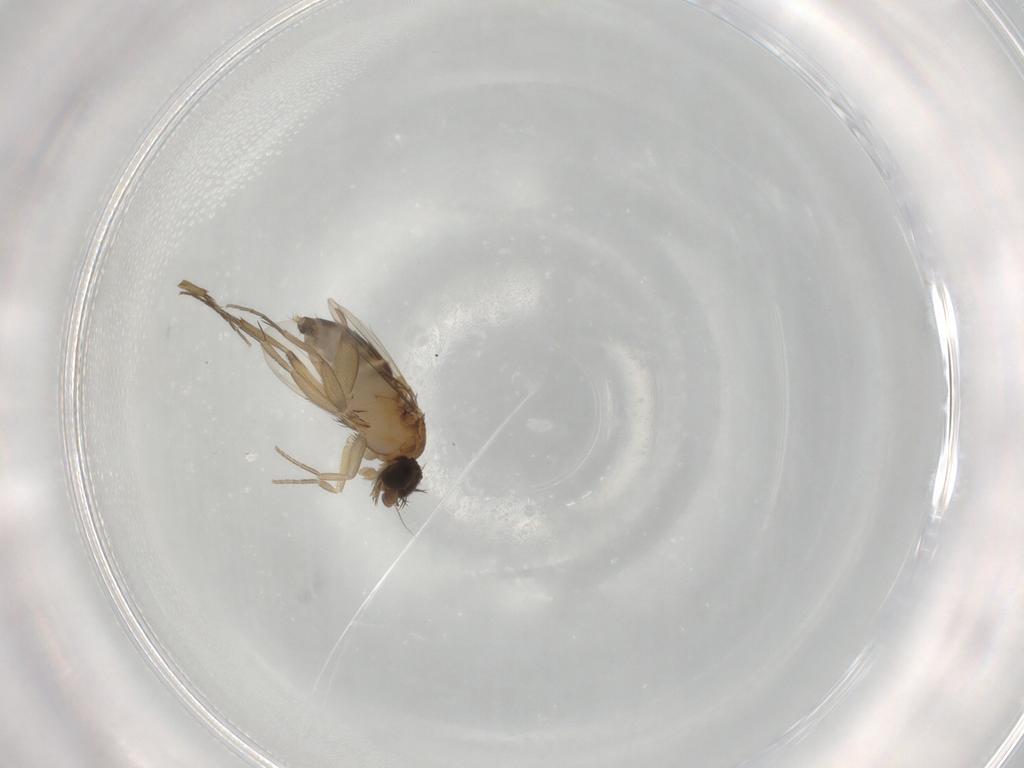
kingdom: Animalia
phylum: Arthropoda
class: Insecta
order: Diptera
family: Phoridae
